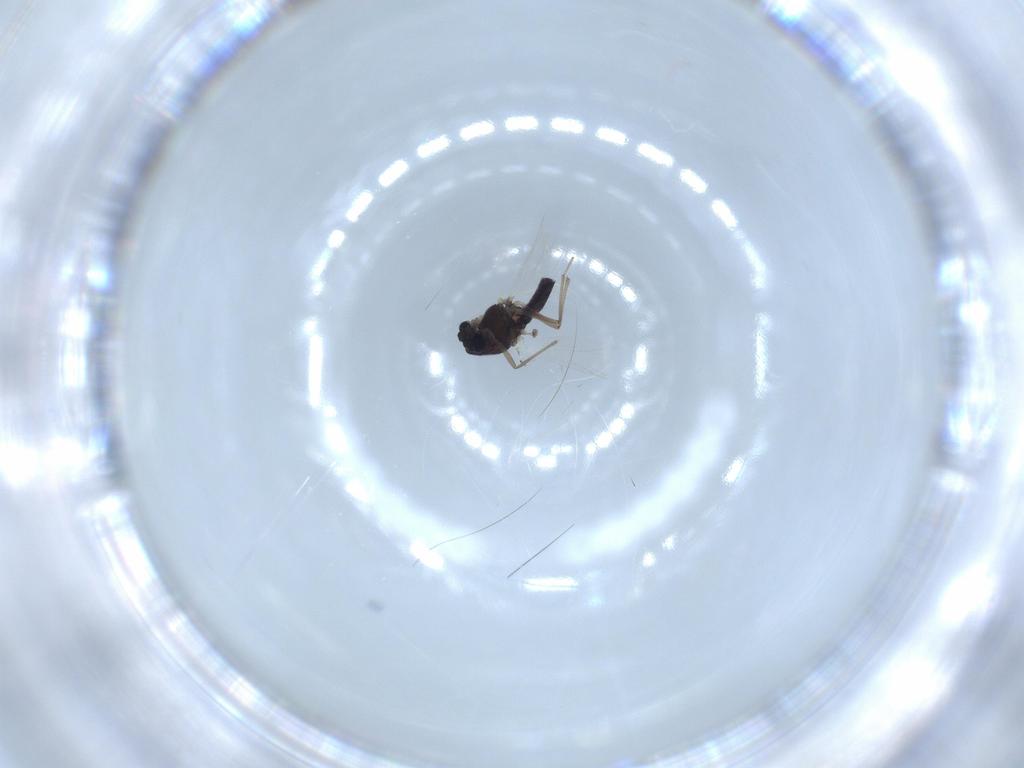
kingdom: Animalia
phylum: Arthropoda
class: Insecta
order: Diptera
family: Chironomidae
